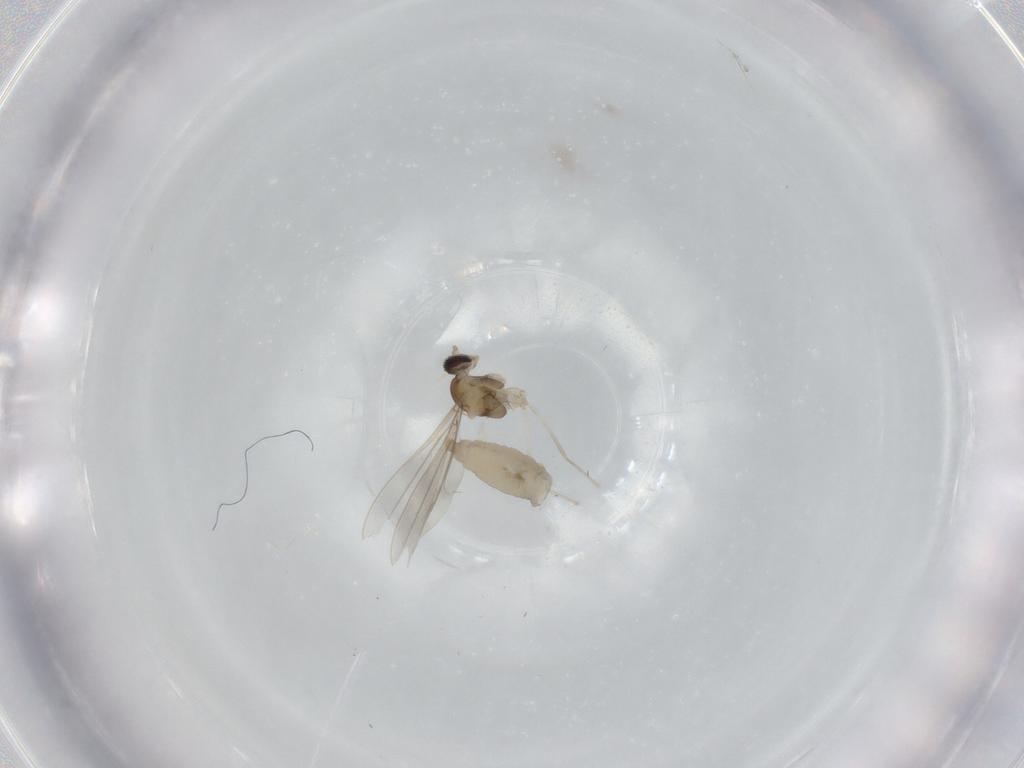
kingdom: Animalia
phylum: Arthropoda
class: Insecta
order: Diptera
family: Cecidomyiidae
